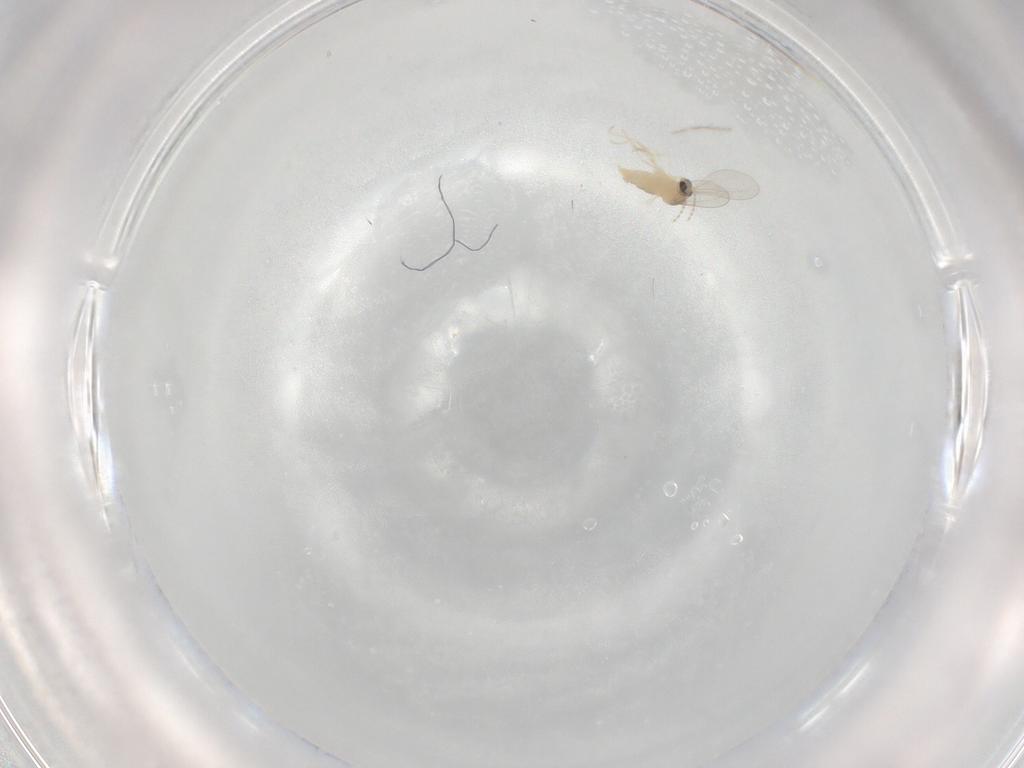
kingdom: Animalia
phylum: Arthropoda
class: Insecta
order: Diptera
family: Cecidomyiidae
